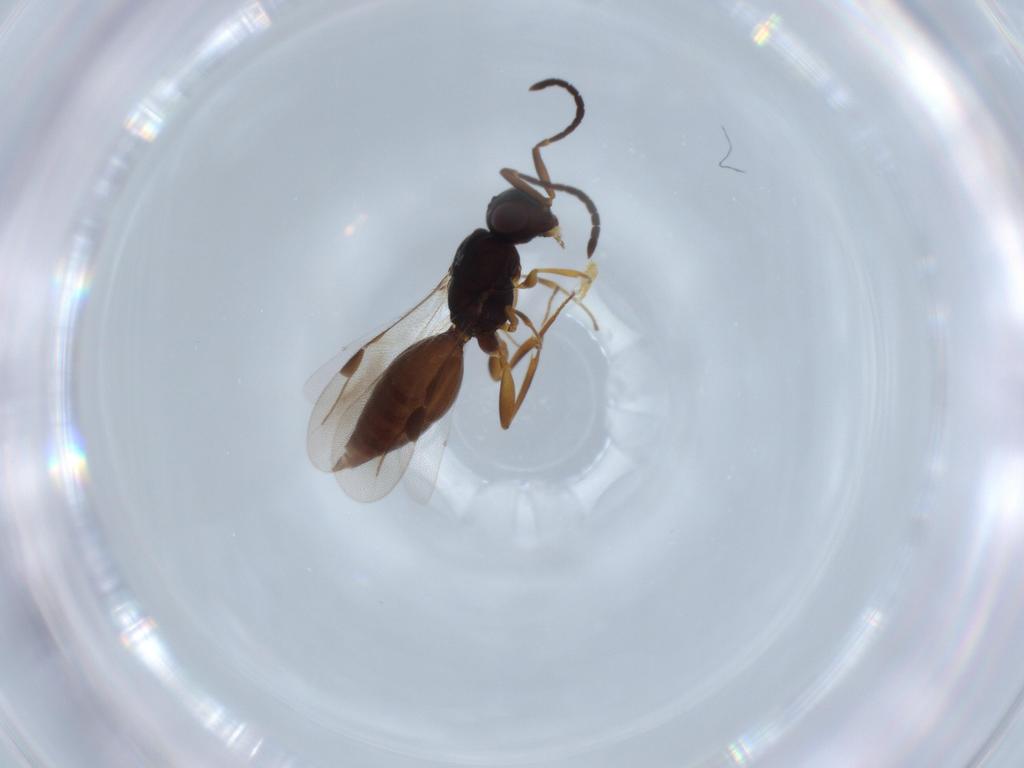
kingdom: Animalia
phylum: Arthropoda
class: Insecta
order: Hymenoptera
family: Megaspilidae
